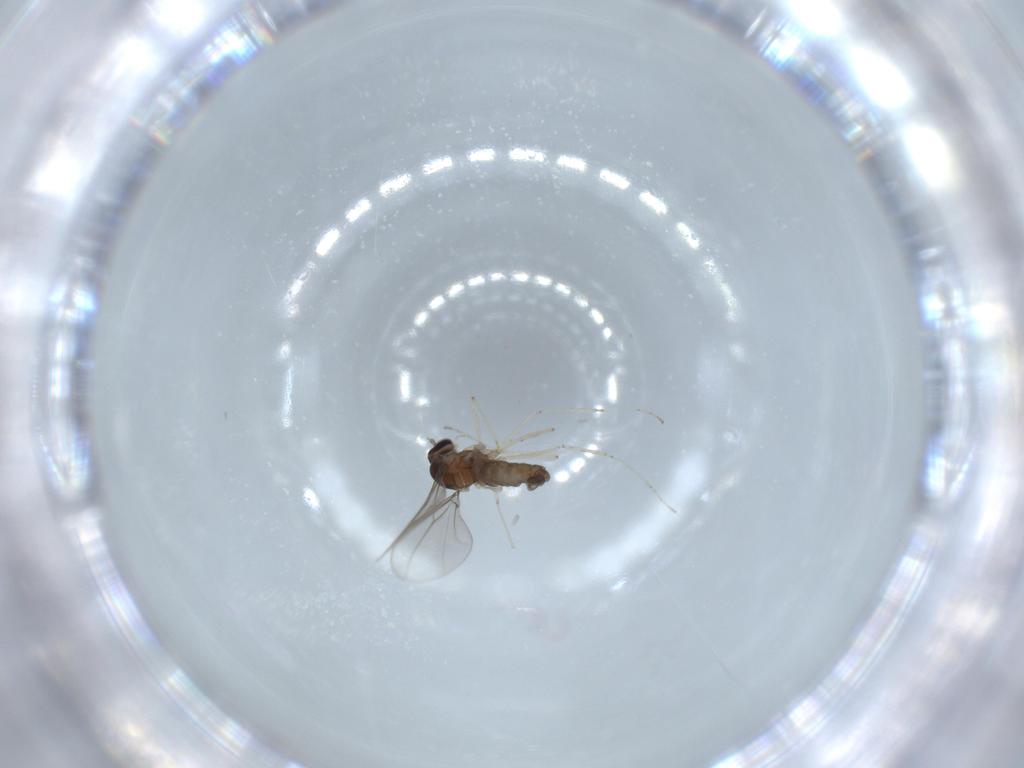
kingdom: Animalia
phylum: Arthropoda
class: Insecta
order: Diptera
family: Cecidomyiidae
